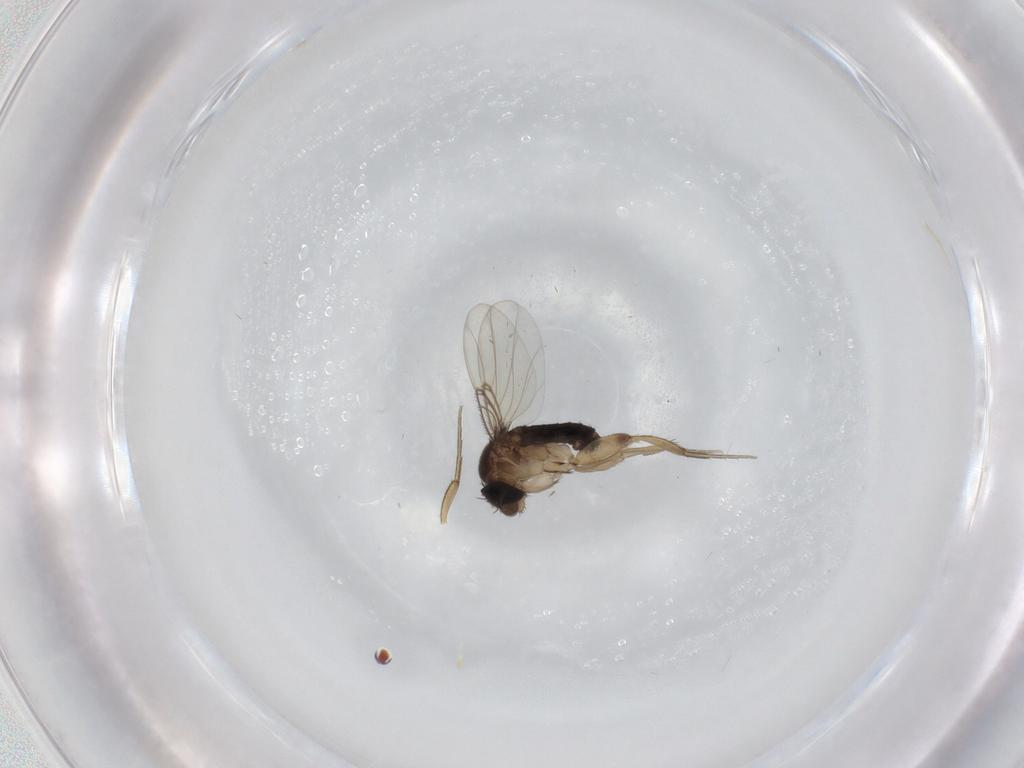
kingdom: Animalia
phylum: Arthropoda
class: Insecta
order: Diptera
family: Phoridae
